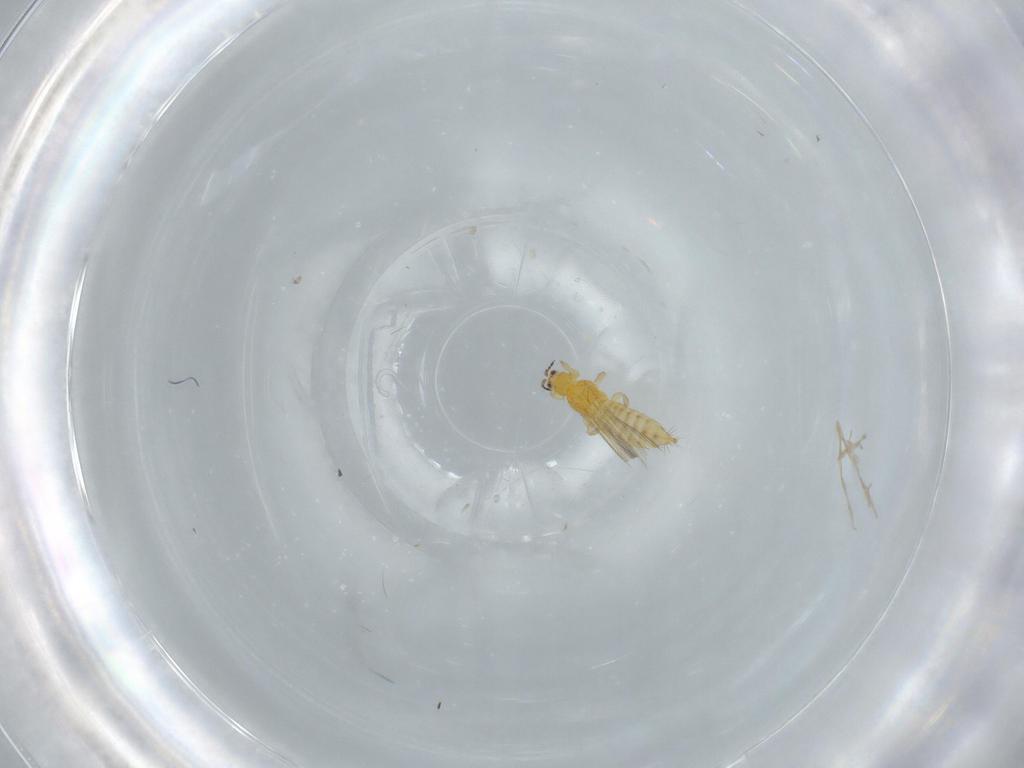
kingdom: Animalia
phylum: Arthropoda
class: Insecta
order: Thysanoptera
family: Thripidae
